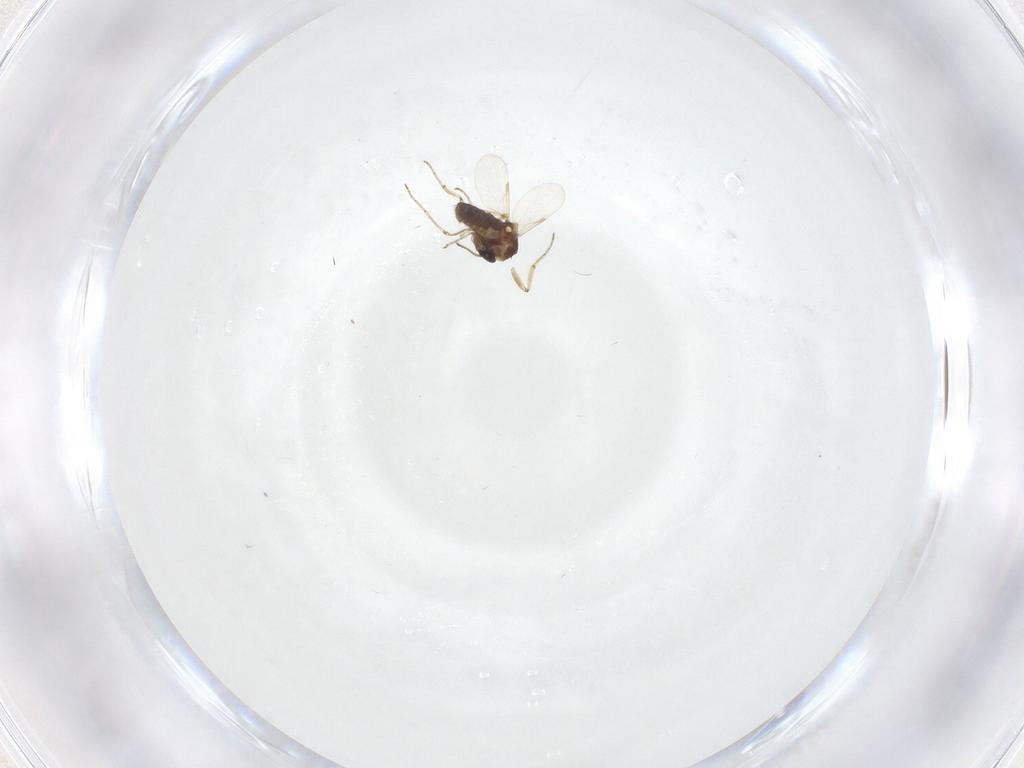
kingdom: Animalia
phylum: Arthropoda
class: Insecta
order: Diptera
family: Ceratopogonidae
